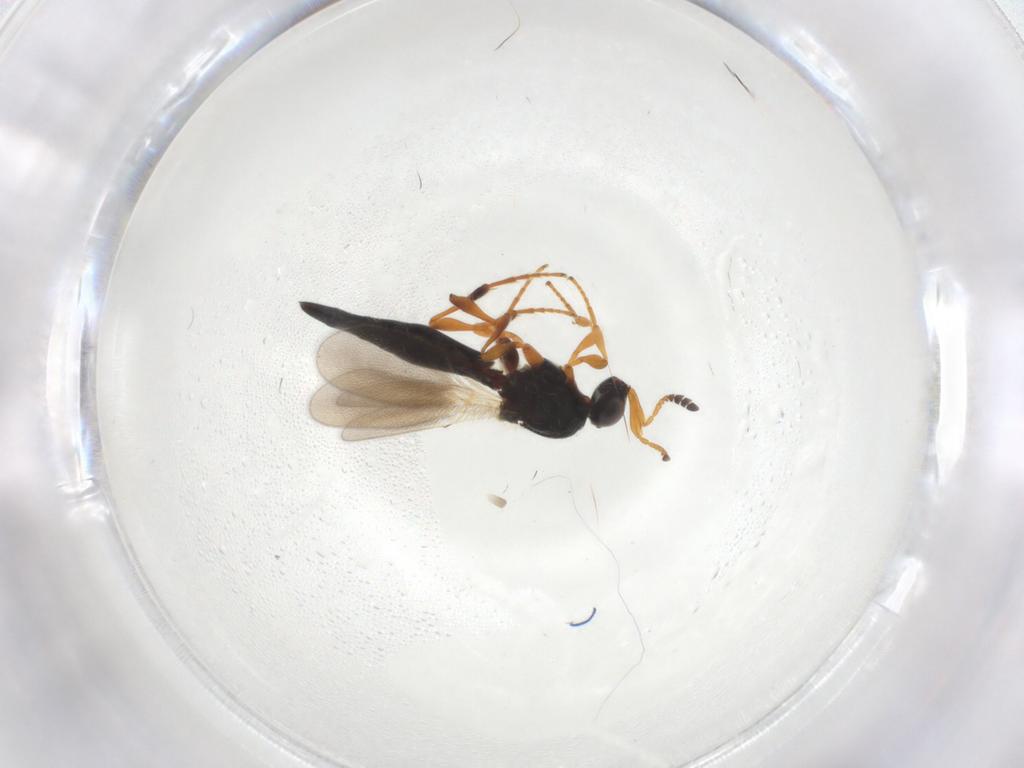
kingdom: Animalia
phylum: Arthropoda
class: Insecta
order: Hymenoptera
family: Platygastridae
